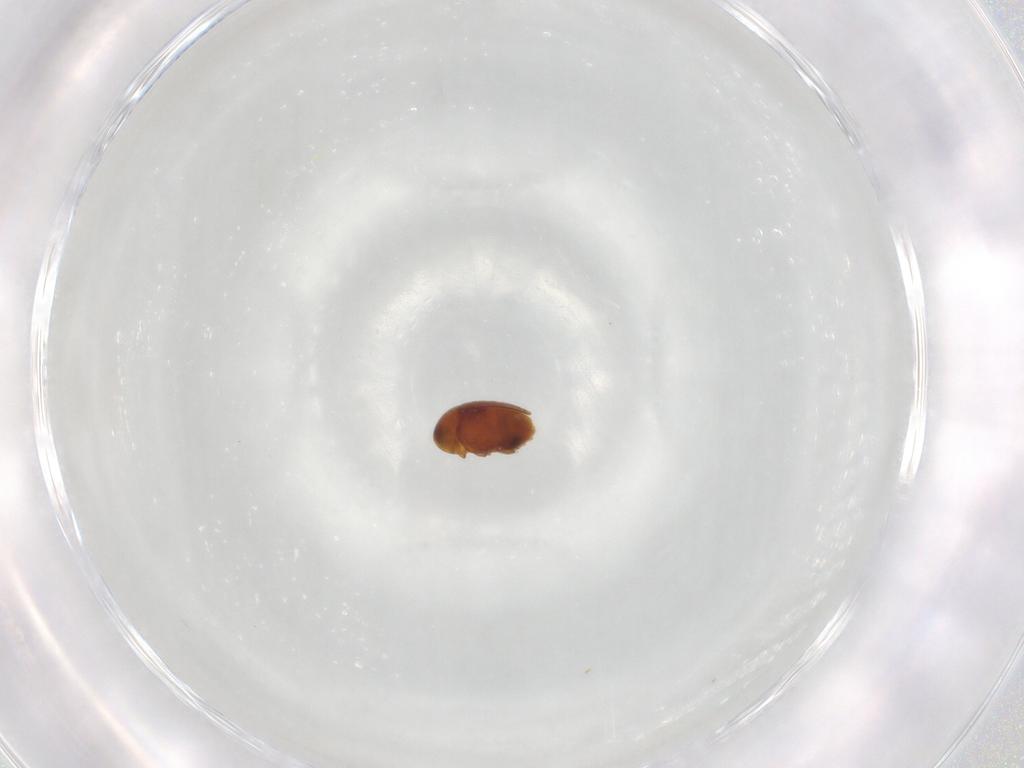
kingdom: Animalia
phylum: Arthropoda
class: Insecta
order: Coleoptera
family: Corylophidae
